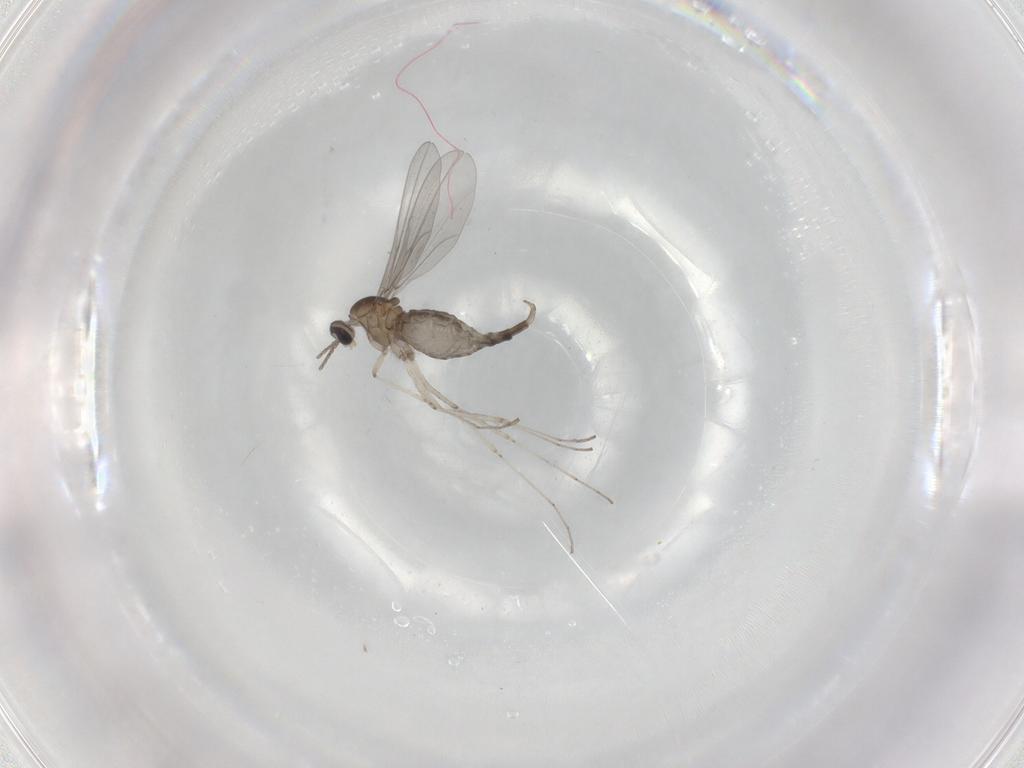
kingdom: Animalia
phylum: Arthropoda
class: Insecta
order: Diptera
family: Cecidomyiidae
